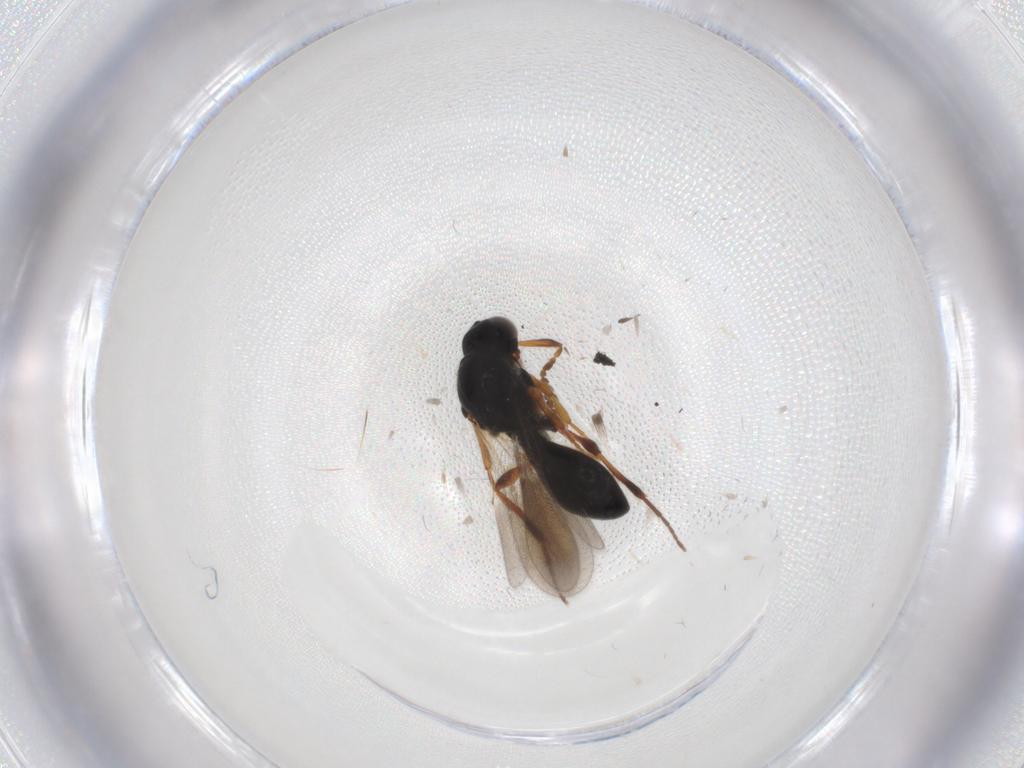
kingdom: Animalia
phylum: Arthropoda
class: Insecta
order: Hymenoptera
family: Platygastridae
